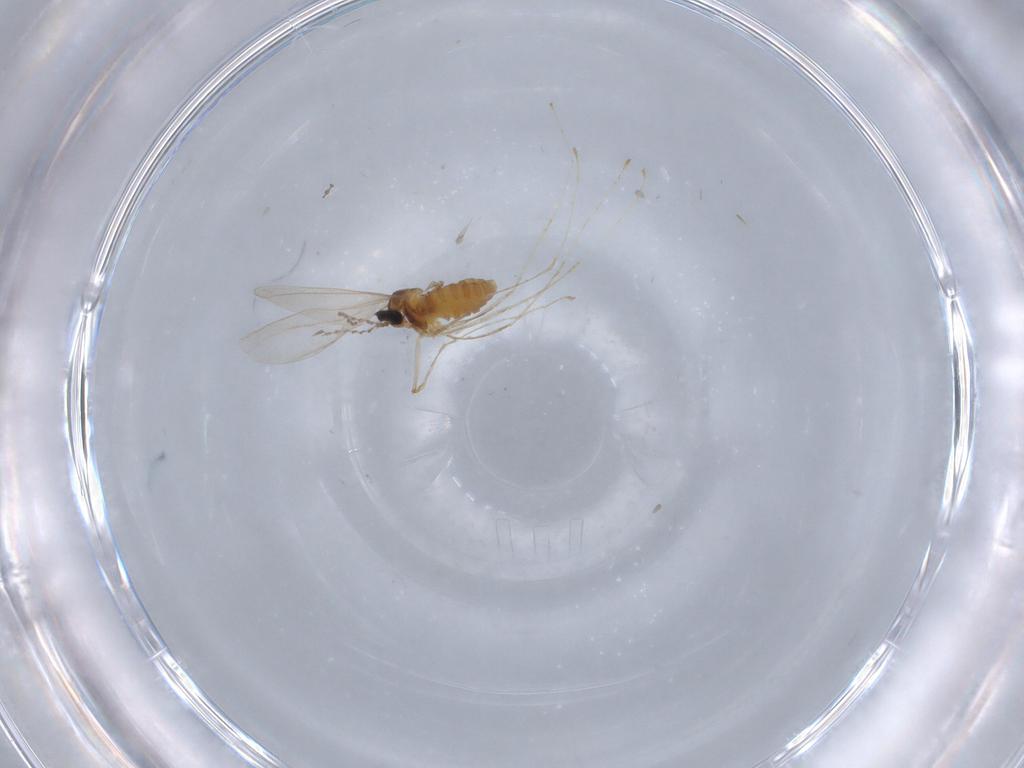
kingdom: Animalia
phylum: Arthropoda
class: Insecta
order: Diptera
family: Cecidomyiidae
